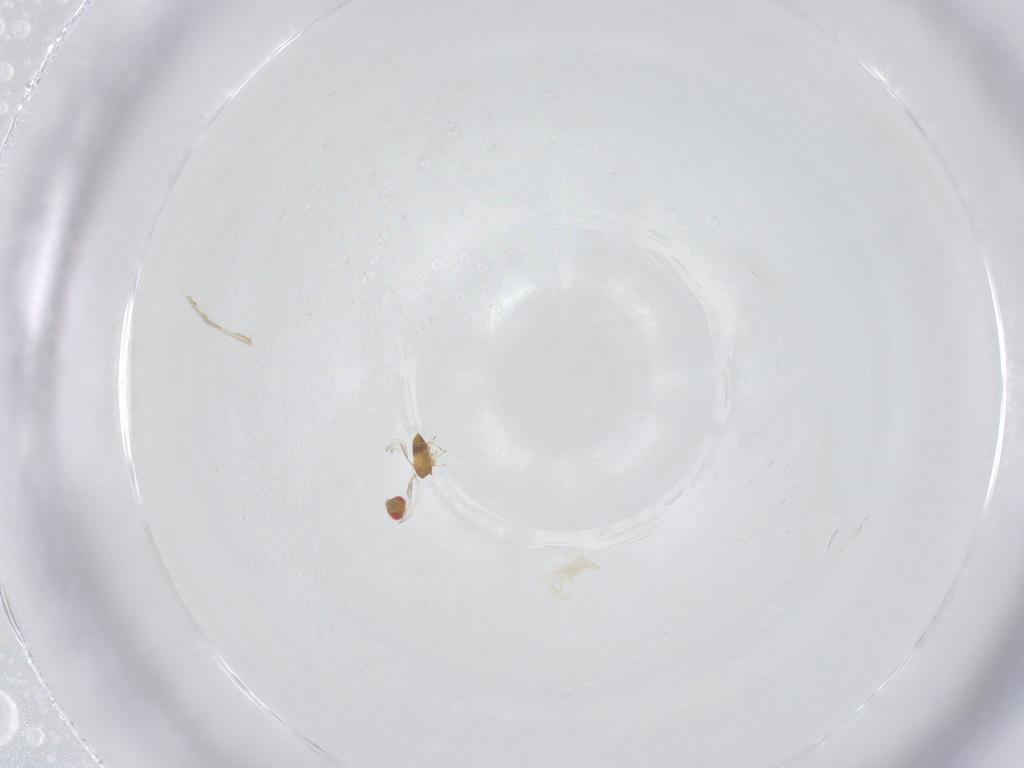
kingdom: Animalia
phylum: Arthropoda
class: Insecta
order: Hymenoptera
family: Trichogrammatidae
